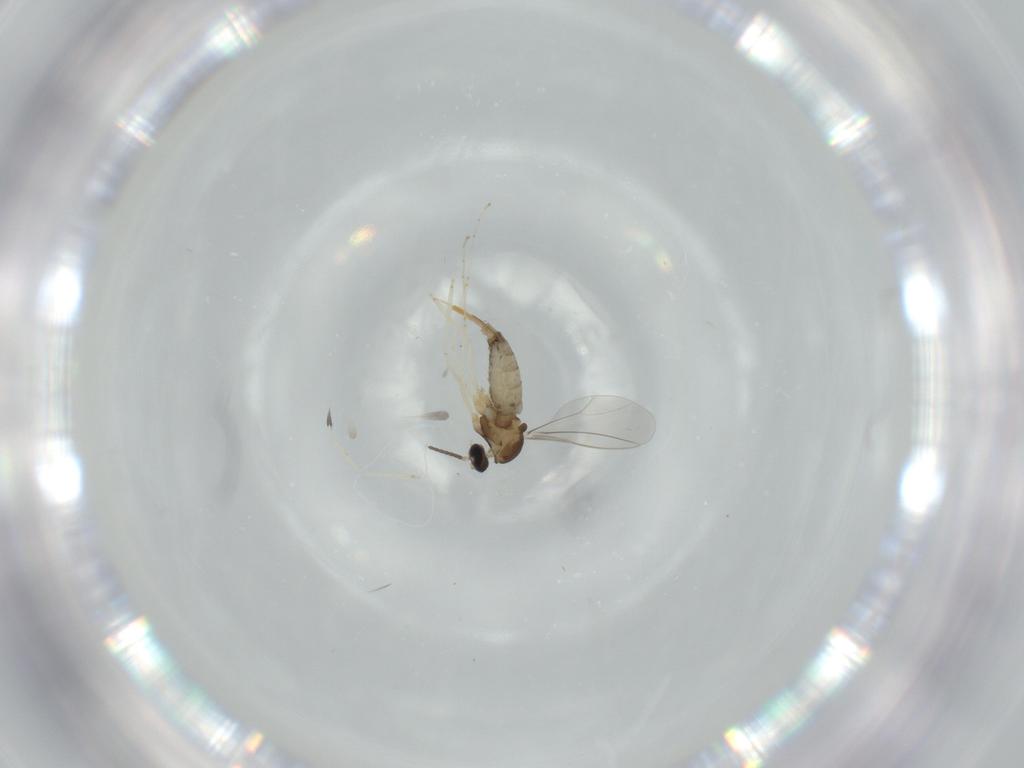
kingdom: Animalia
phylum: Arthropoda
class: Insecta
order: Diptera
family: Cecidomyiidae
